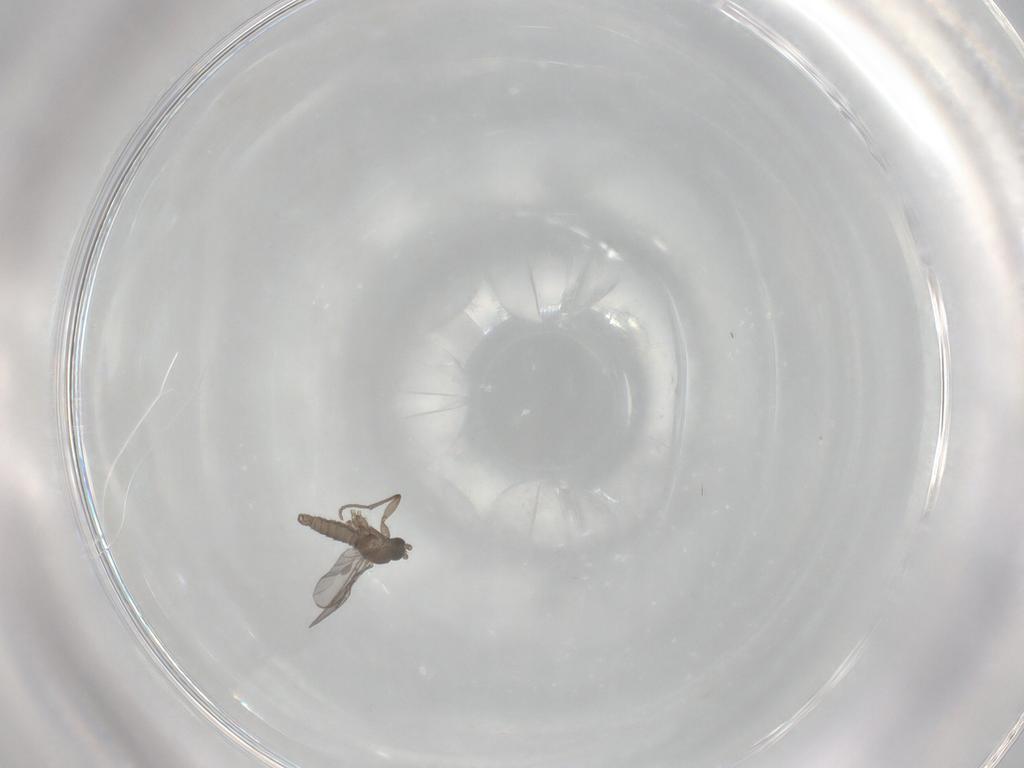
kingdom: Animalia
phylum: Arthropoda
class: Insecta
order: Diptera
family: Sciaridae
